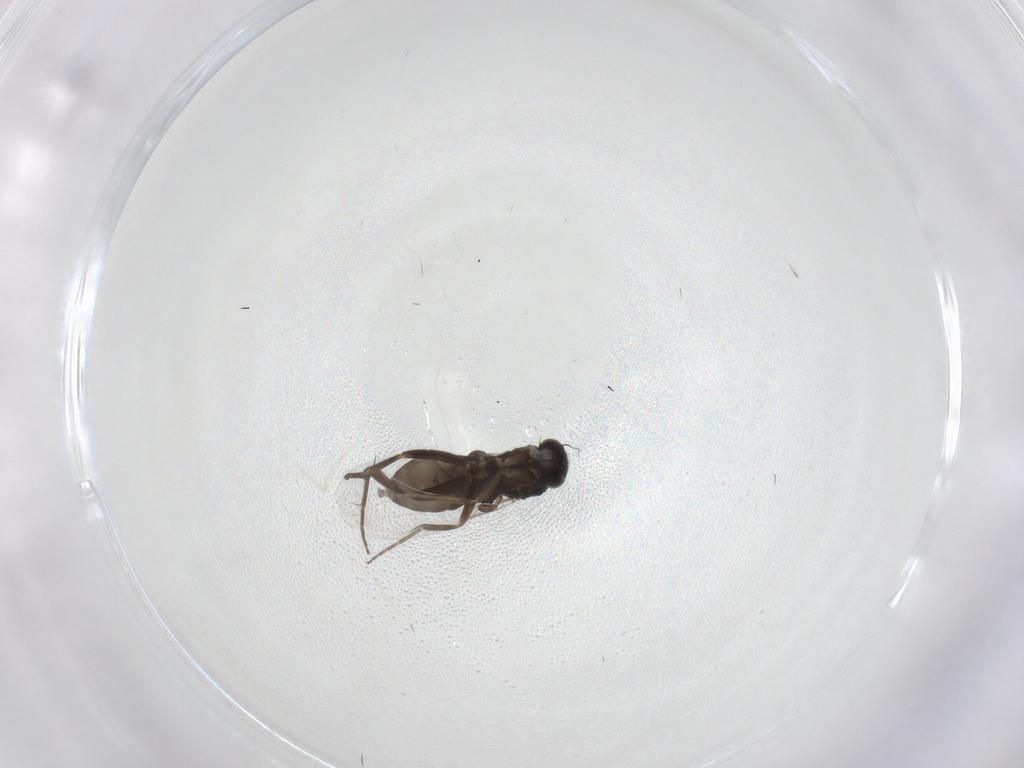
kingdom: Animalia
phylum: Arthropoda
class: Insecta
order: Diptera
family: Phoridae
